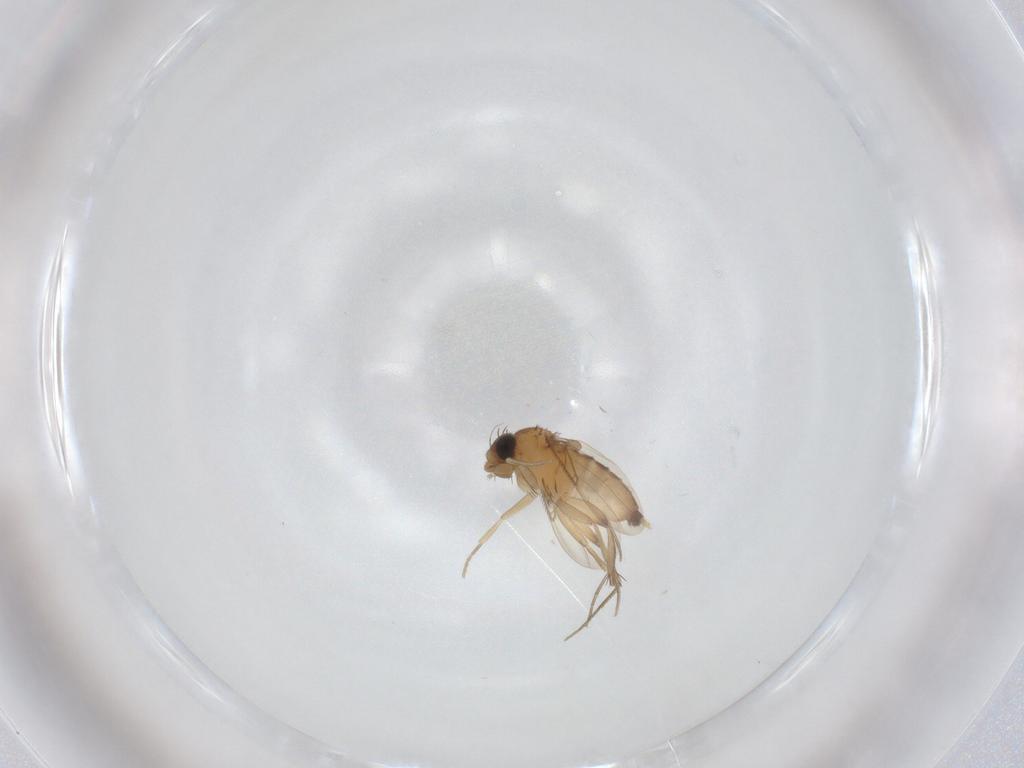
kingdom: Animalia
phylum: Arthropoda
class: Insecta
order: Diptera
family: Phoridae
